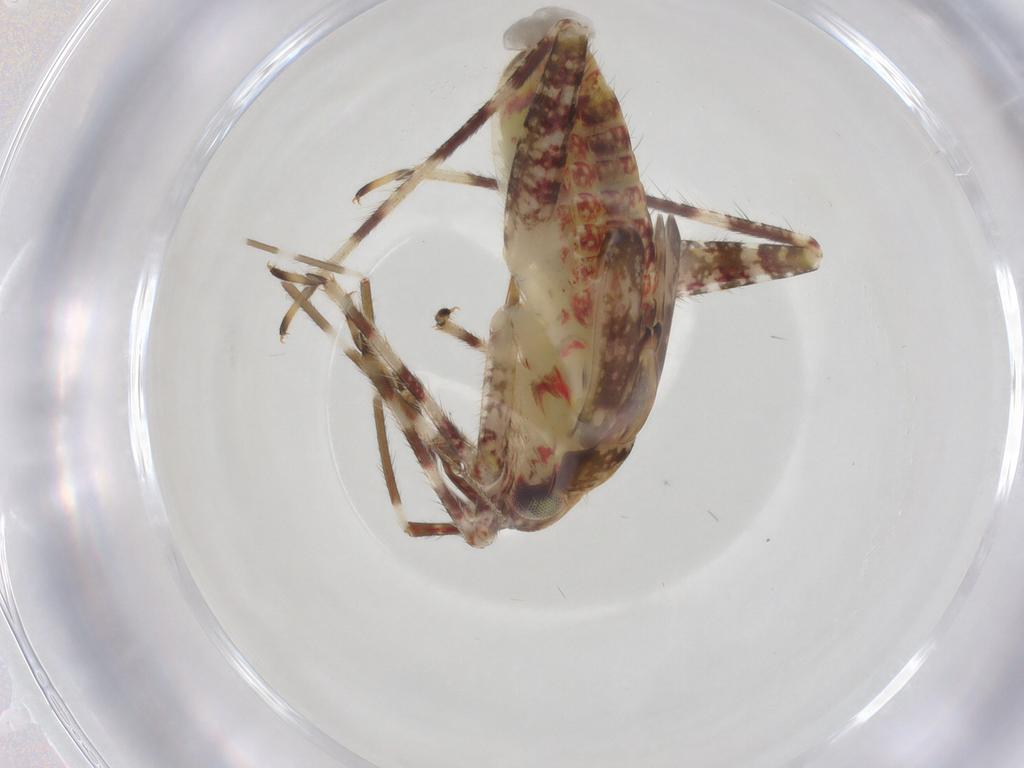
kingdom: Animalia
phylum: Arthropoda
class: Insecta
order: Hemiptera
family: Miridae
